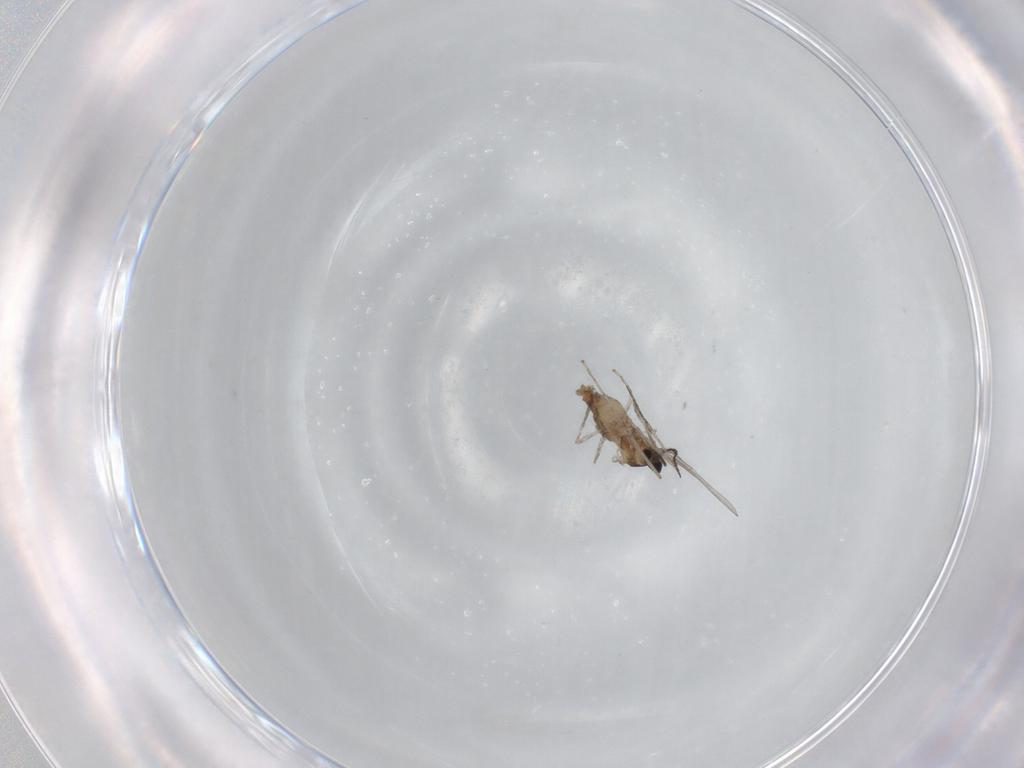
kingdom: Animalia
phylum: Arthropoda
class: Insecta
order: Diptera
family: Cecidomyiidae
